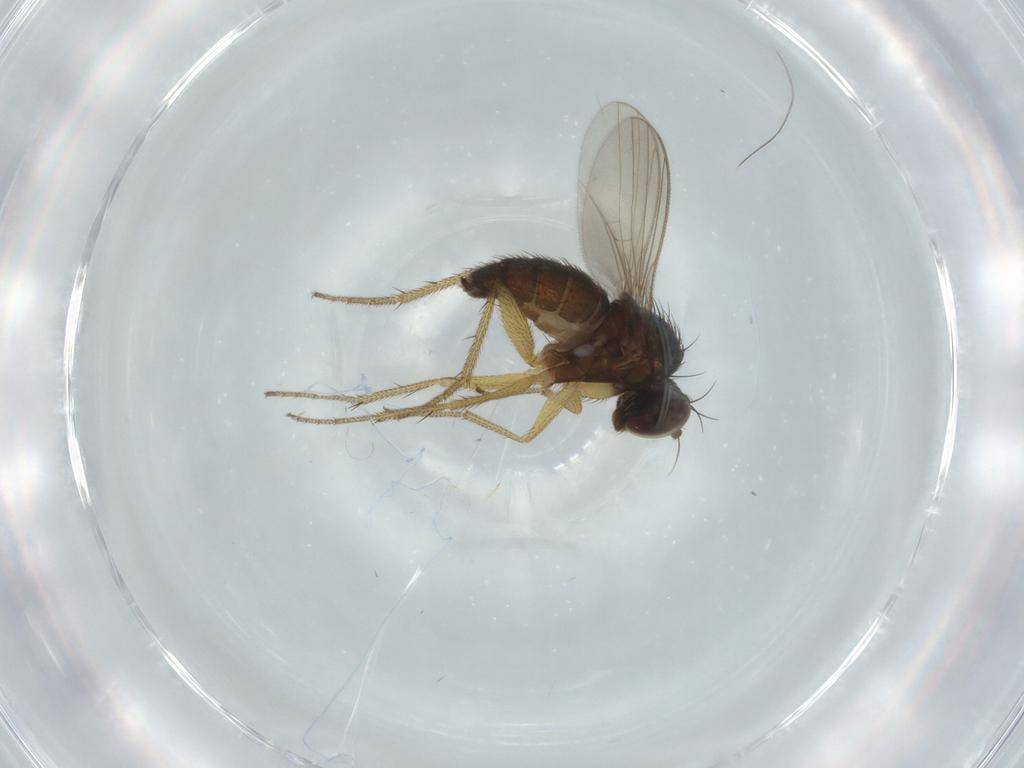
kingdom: Animalia
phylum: Arthropoda
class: Insecta
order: Diptera
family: Dolichopodidae
